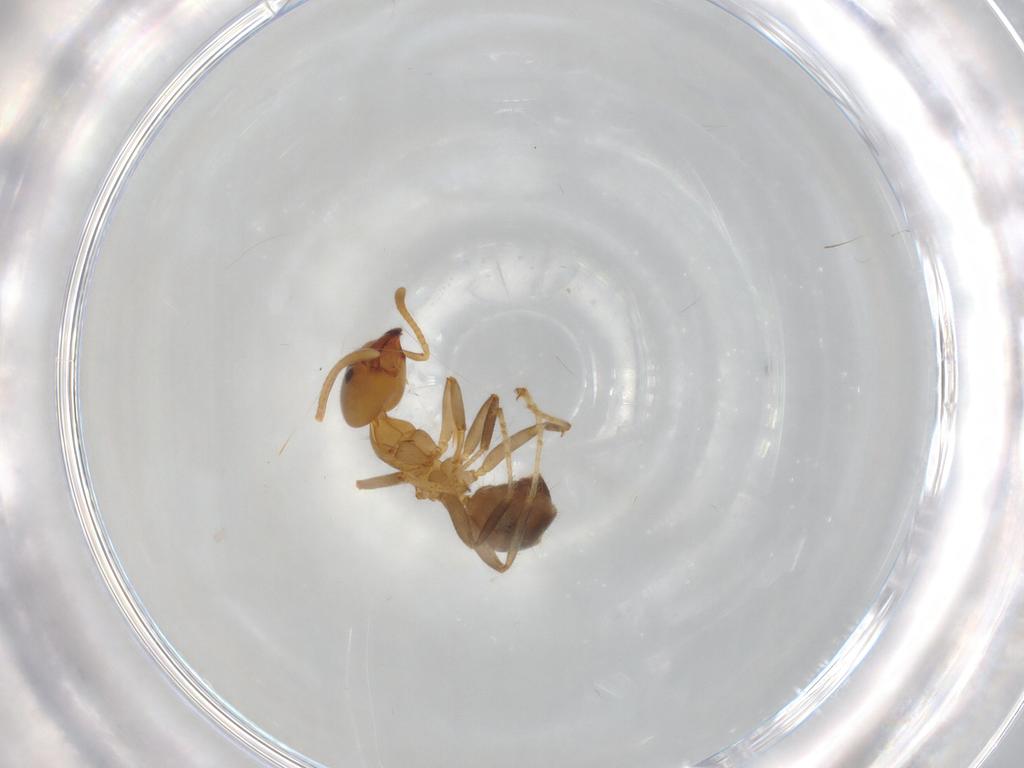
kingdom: Animalia
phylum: Arthropoda
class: Insecta
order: Hymenoptera
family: Formicidae
